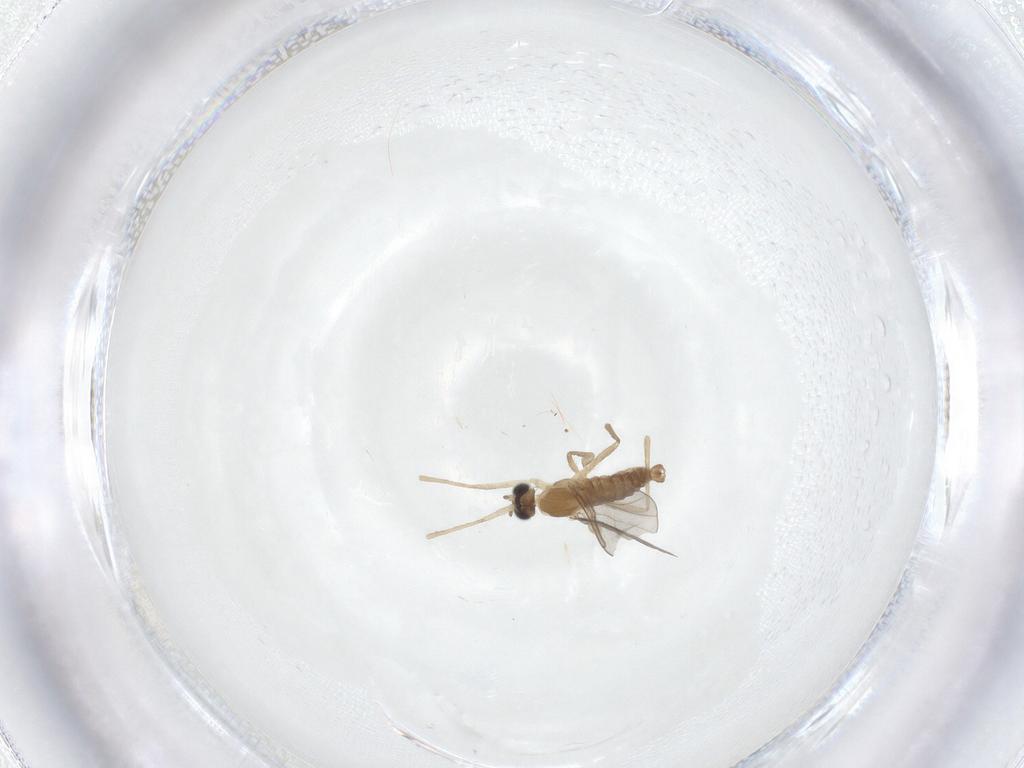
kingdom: Animalia
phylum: Arthropoda
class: Insecta
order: Diptera
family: Cecidomyiidae
